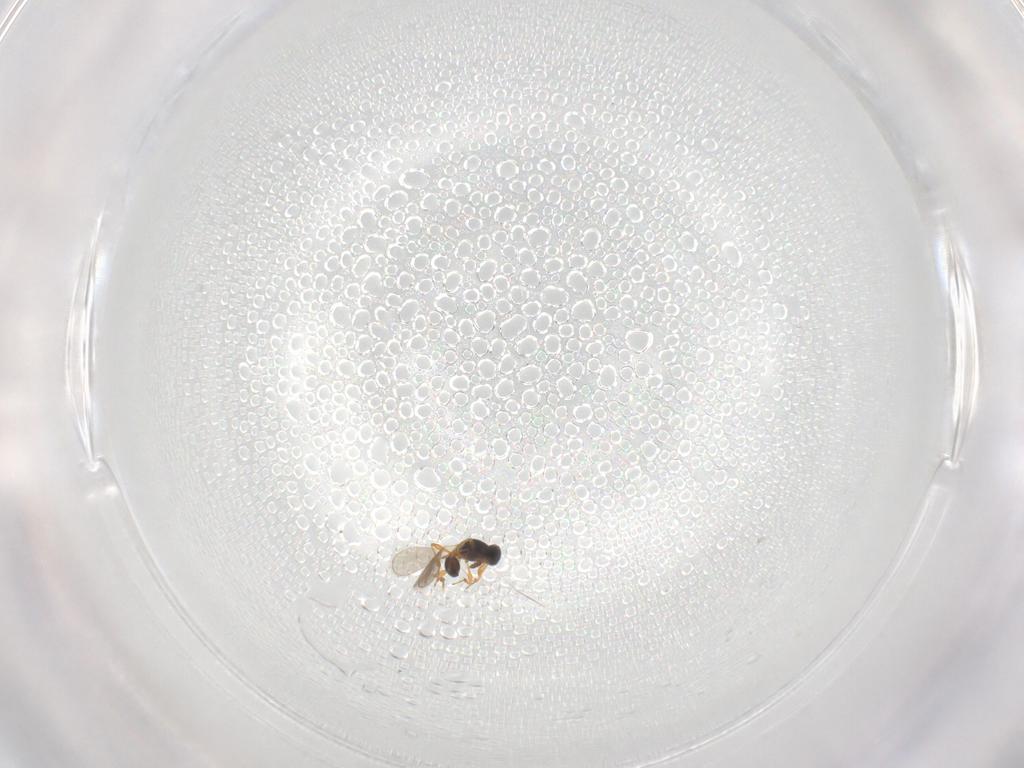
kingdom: Animalia
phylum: Arthropoda
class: Insecta
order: Hymenoptera
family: Platygastridae
